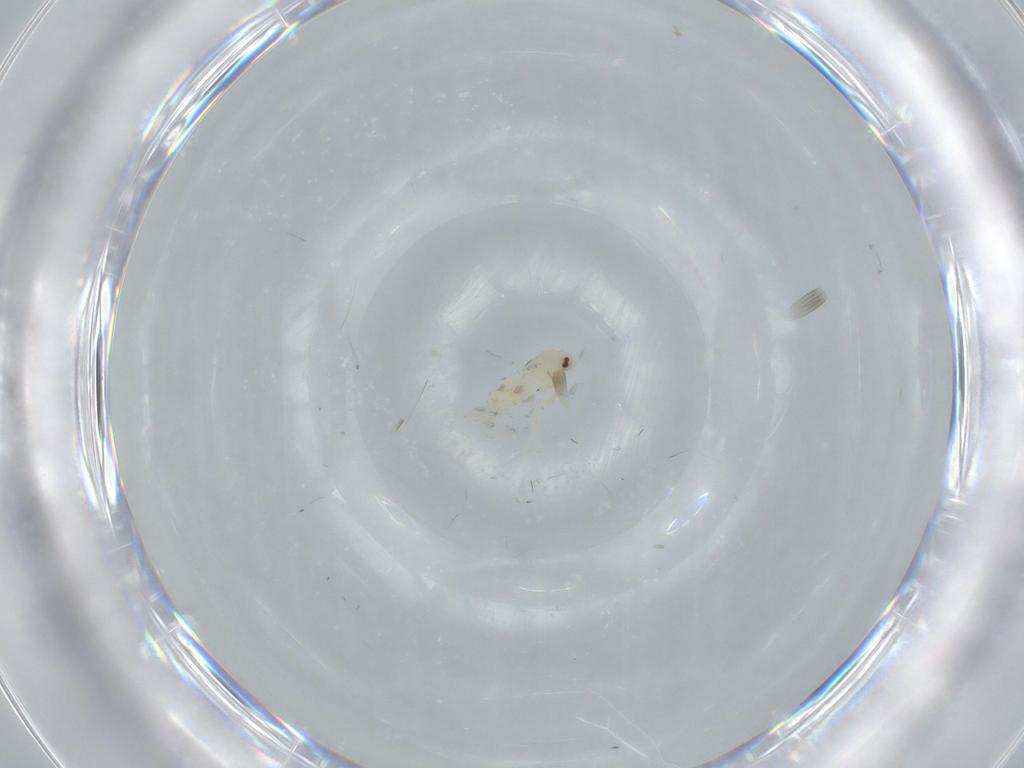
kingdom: Animalia
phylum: Arthropoda
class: Insecta
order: Hemiptera
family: Aleyrodidae
